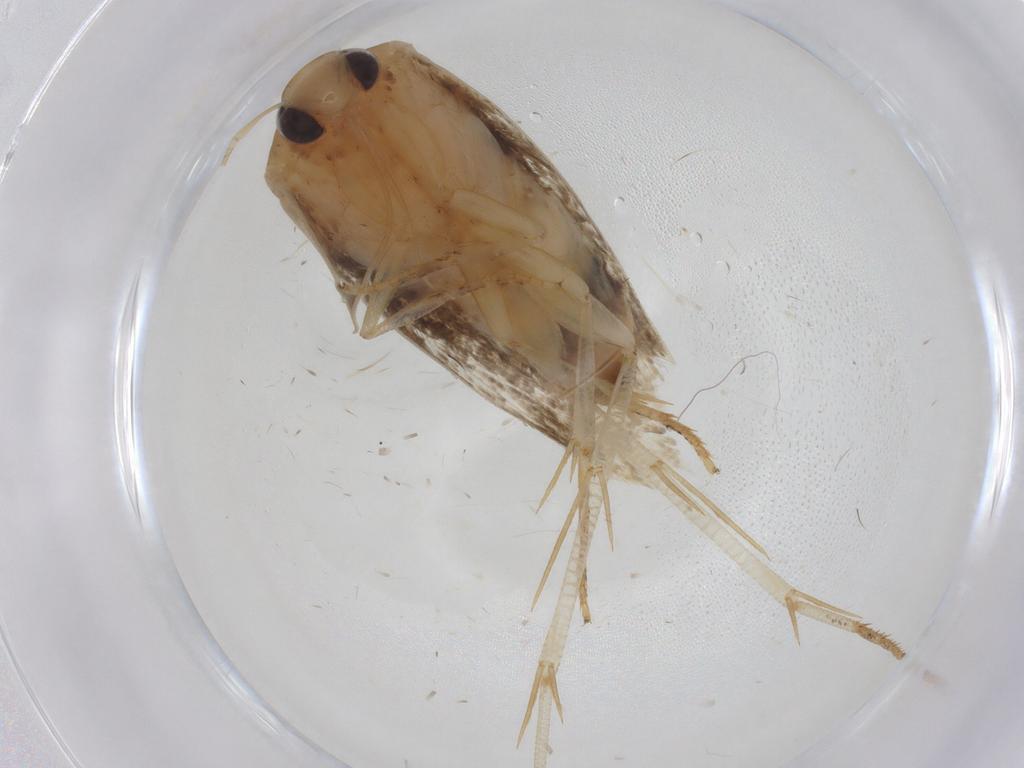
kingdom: Animalia
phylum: Arthropoda
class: Insecta
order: Lepidoptera
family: Cosmopterigidae
